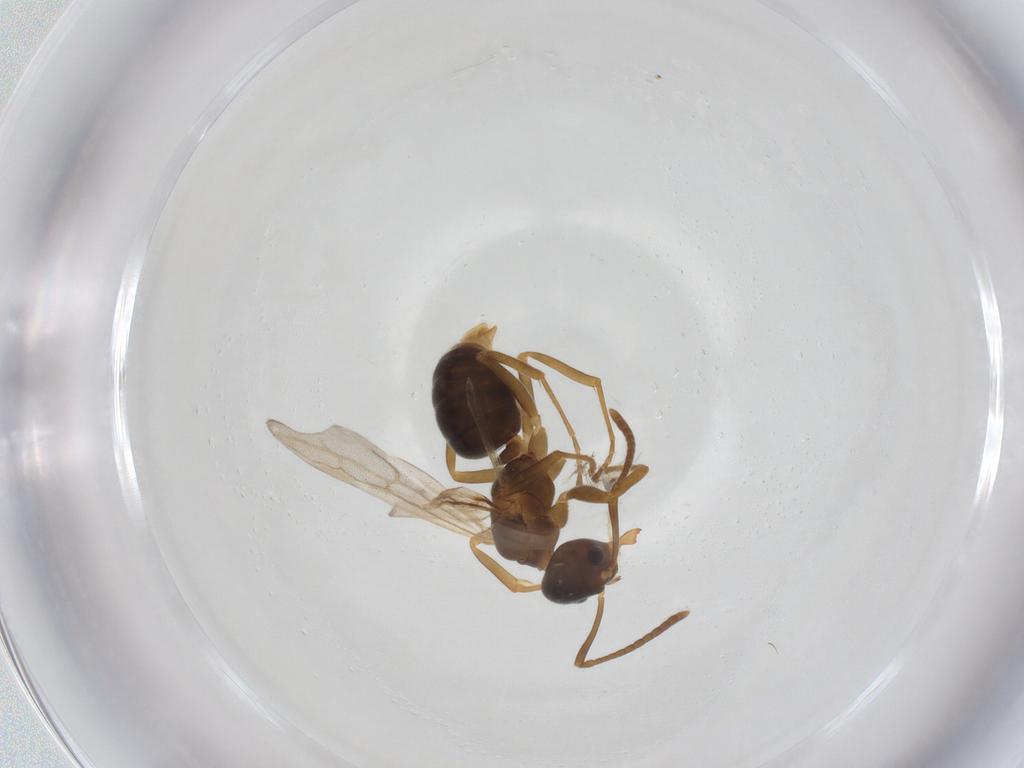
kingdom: Animalia
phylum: Arthropoda
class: Insecta
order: Hymenoptera
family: Formicidae
